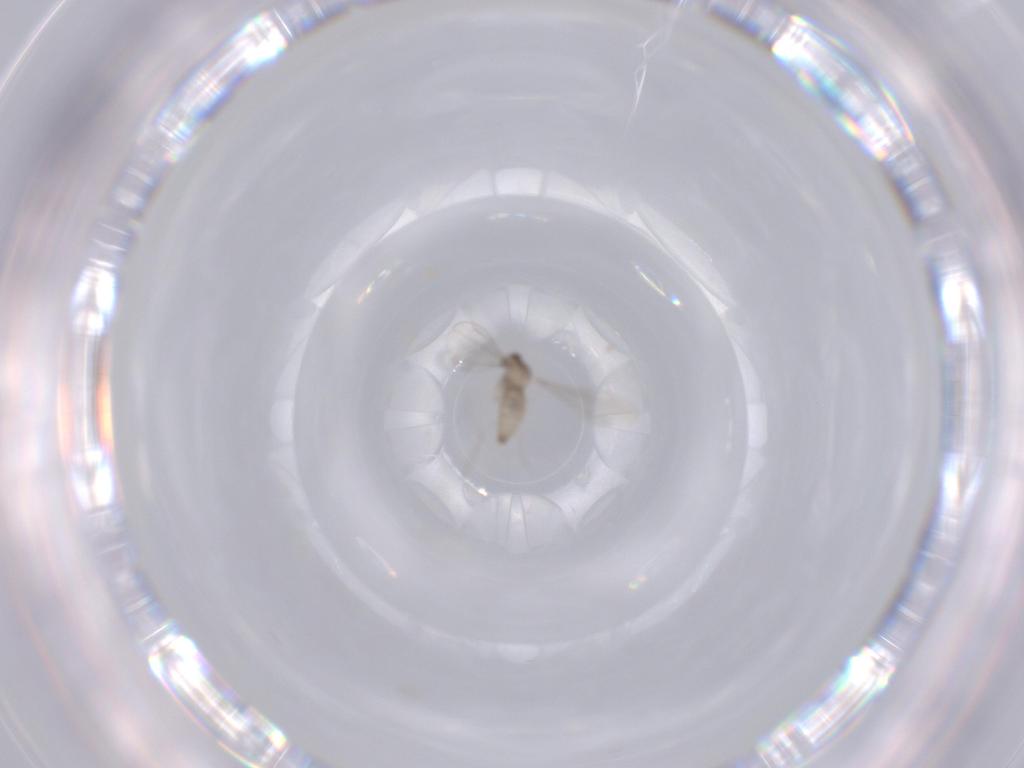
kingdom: Animalia
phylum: Arthropoda
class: Insecta
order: Diptera
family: Cecidomyiidae
